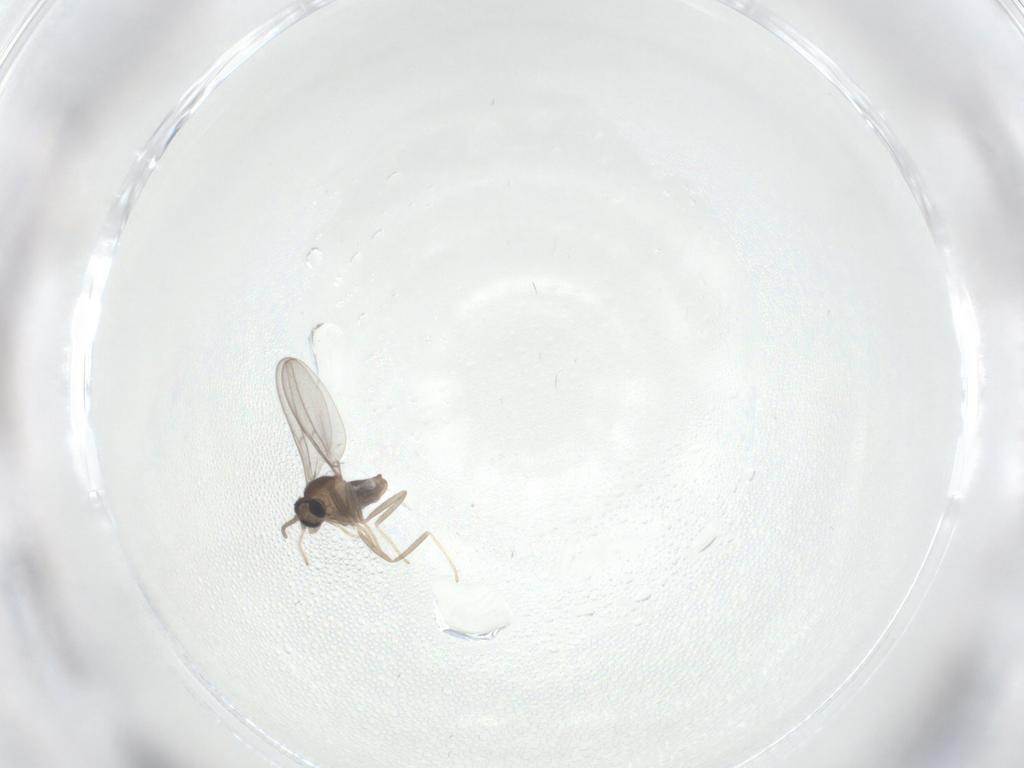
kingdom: Animalia
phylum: Arthropoda
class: Insecta
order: Diptera
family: Cecidomyiidae
